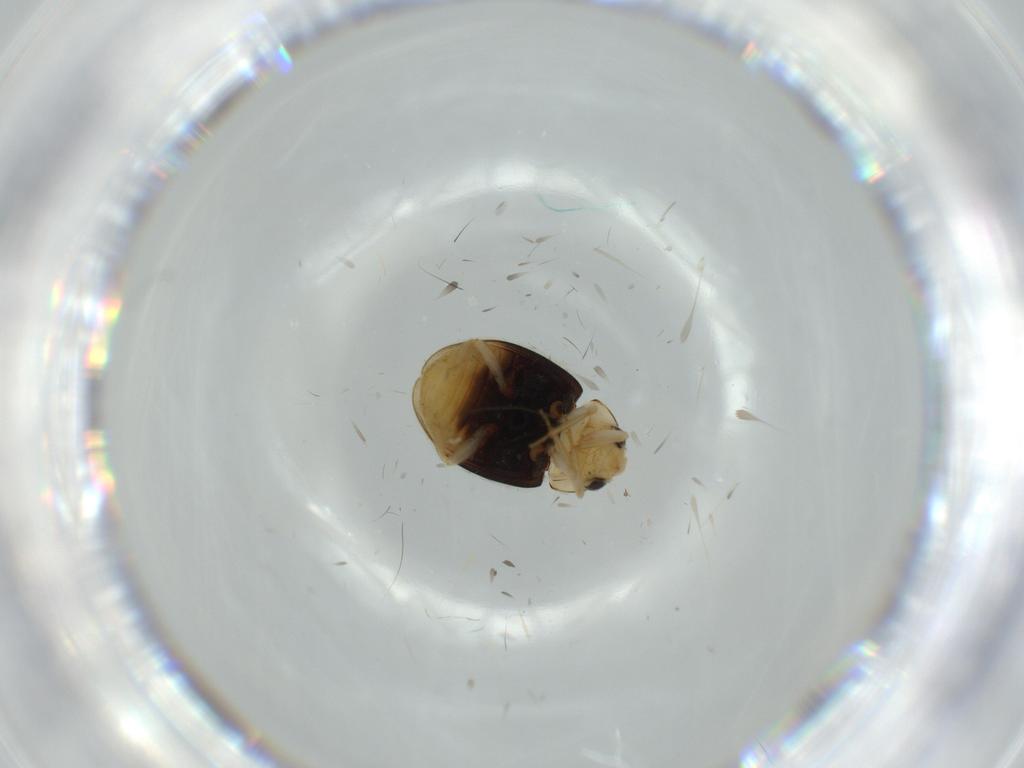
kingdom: Animalia
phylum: Arthropoda
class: Insecta
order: Coleoptera
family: Coccinellidae
